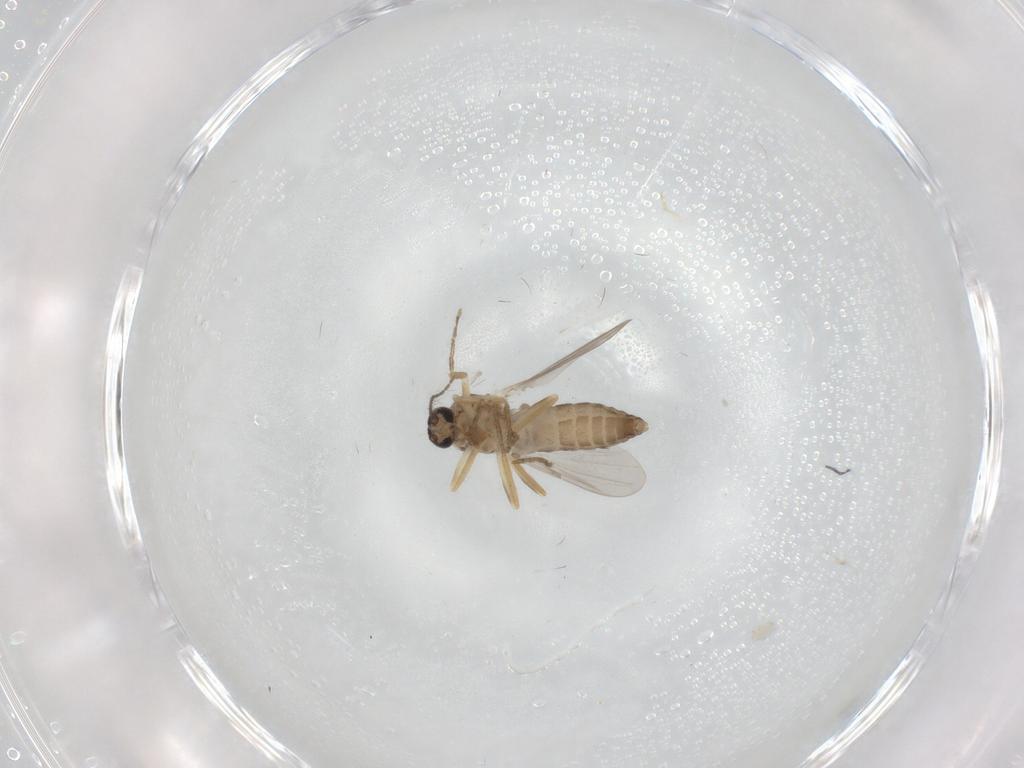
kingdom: Animalia
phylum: Arthropoda
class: Insecta
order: Diptera
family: Ceratopogonidae
